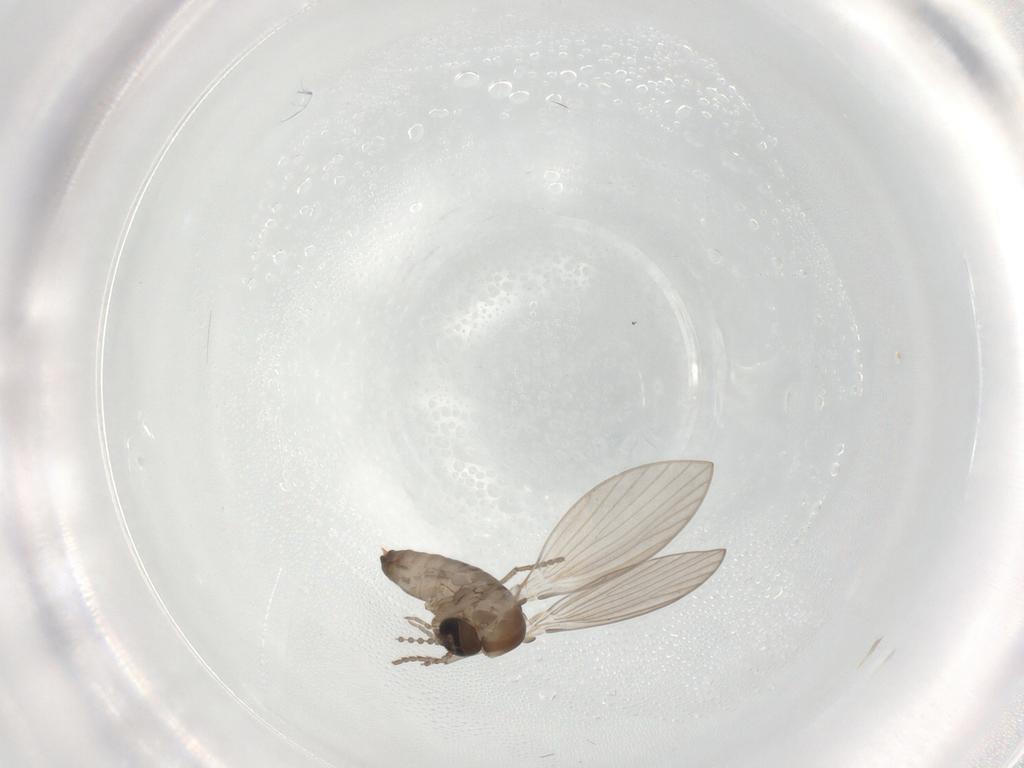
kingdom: Animalia
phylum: Arthropoda
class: Insecta
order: Diptera
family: Psychodidae
